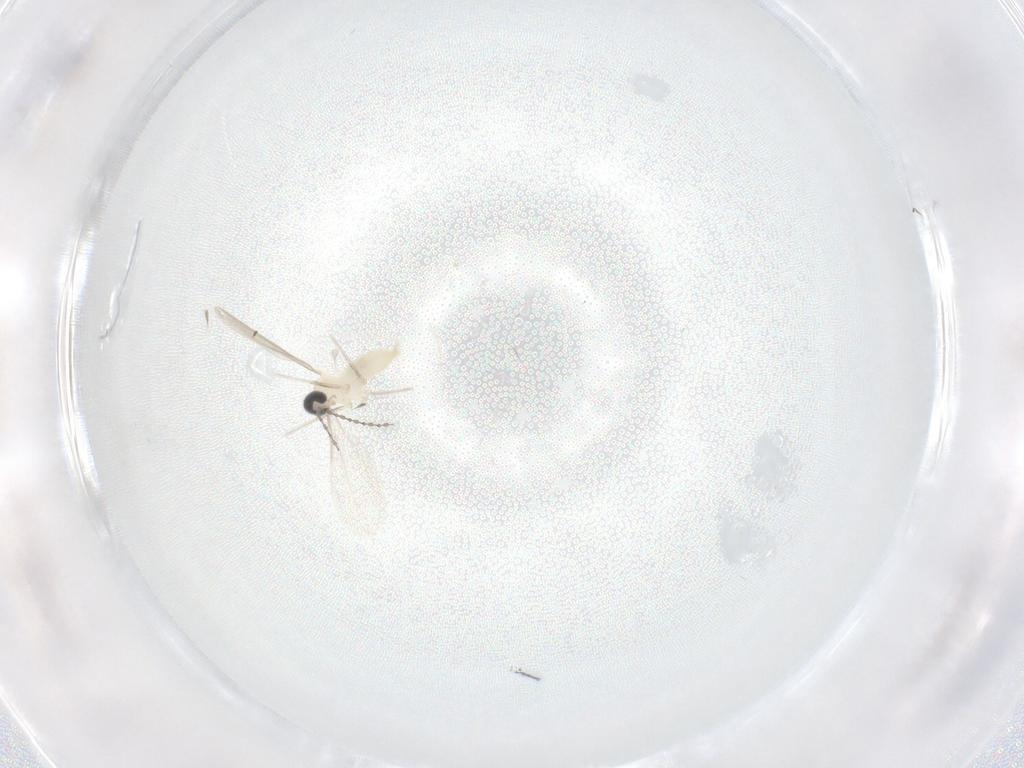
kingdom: Animalia
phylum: Arthropoda
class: Insecta
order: Diptera
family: Cecidomyiidae
